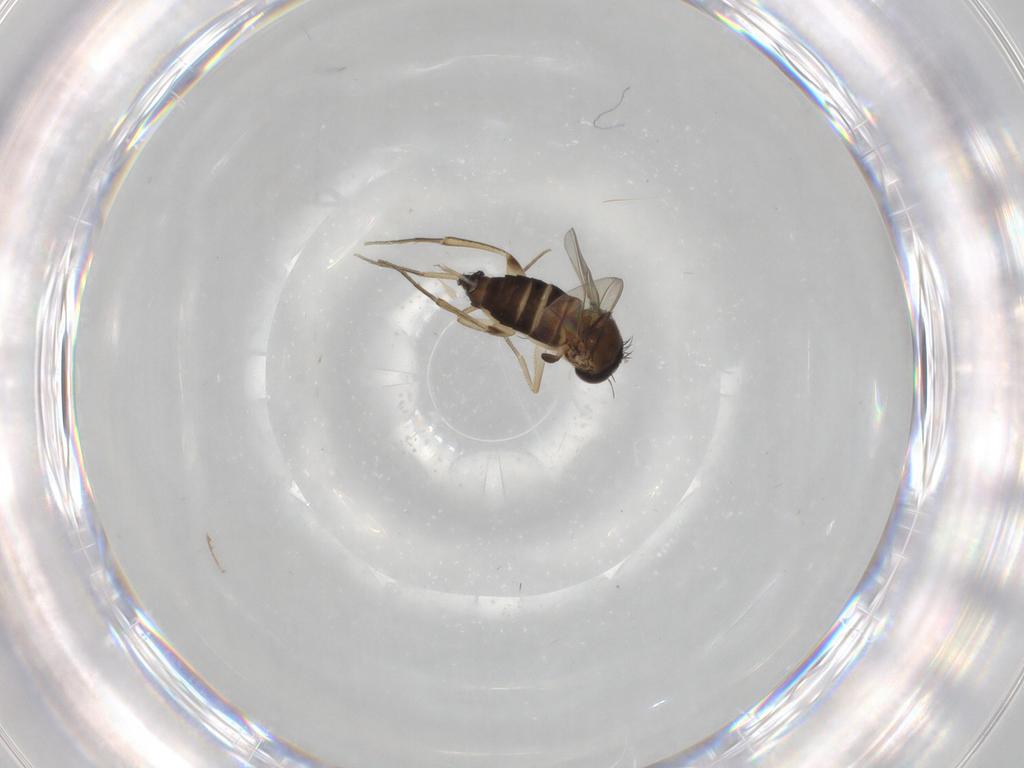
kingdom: Animalia
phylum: Arthropoda
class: Insecta
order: Diptera
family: Phoridae
